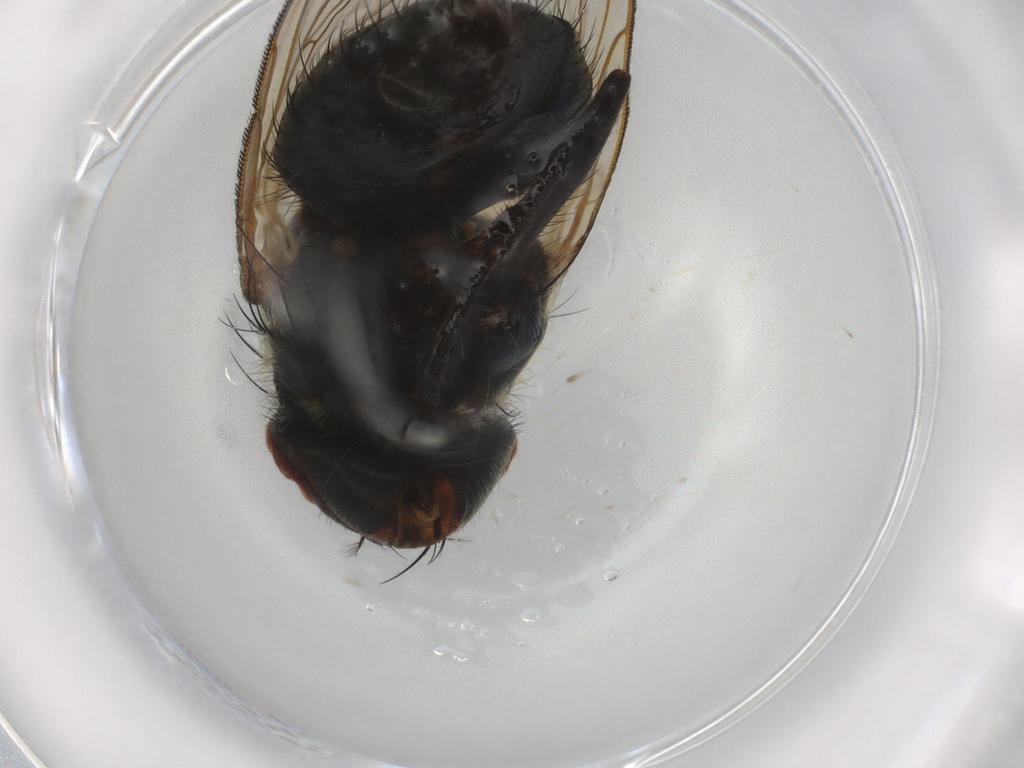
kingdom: Animalia
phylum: Arthropoda
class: Insecta
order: Diptera
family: Polleniidae
